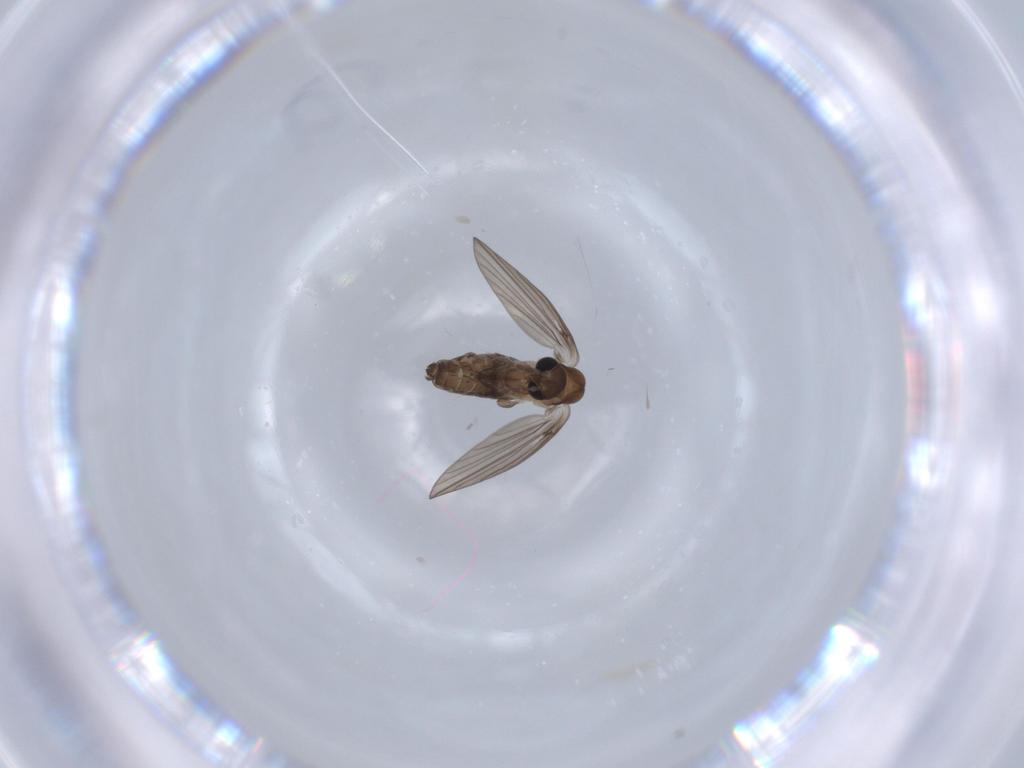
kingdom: Animalia
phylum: Arthropoda
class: Insecta
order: Diptera
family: Psychodidae
